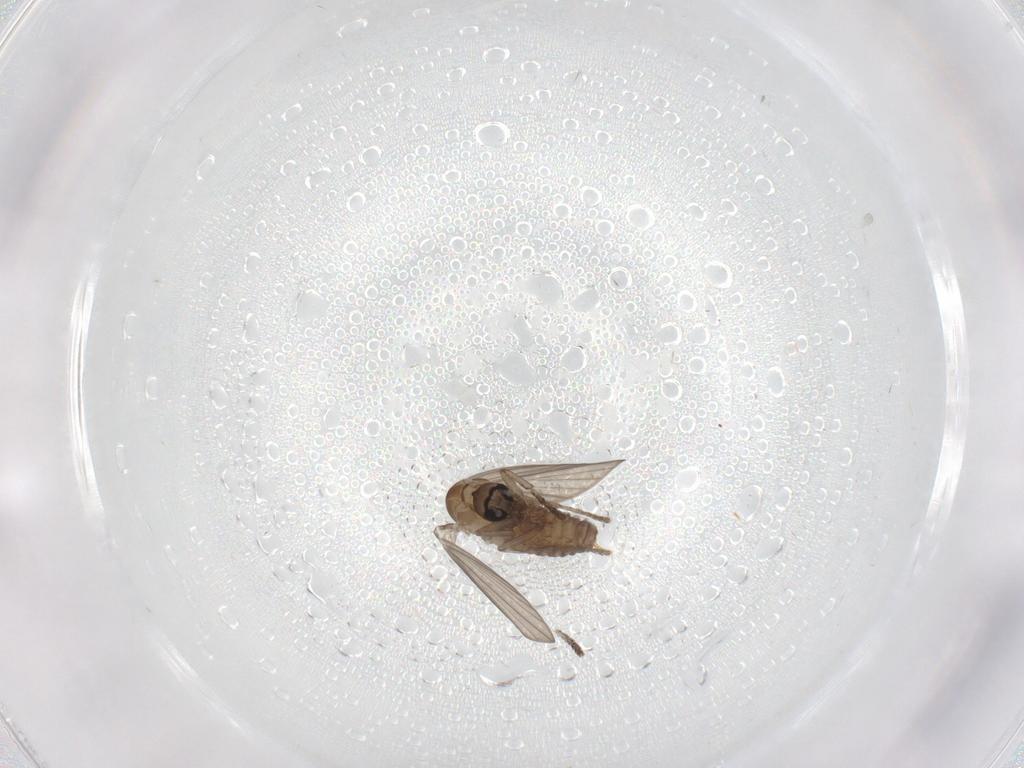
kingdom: Animalia
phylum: Arthropoda
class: Insecta
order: Diptera
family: Psychodidae
